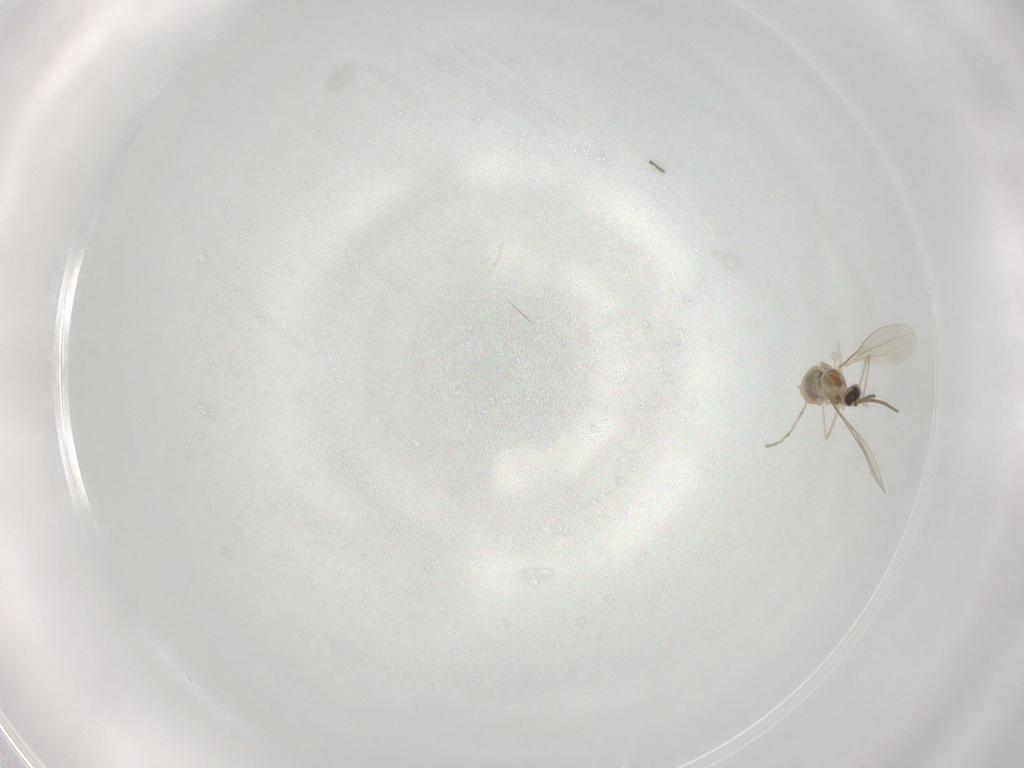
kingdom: Animalia
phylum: Arthropoda
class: Insecta
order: Diptera
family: Cecidomyiidae
